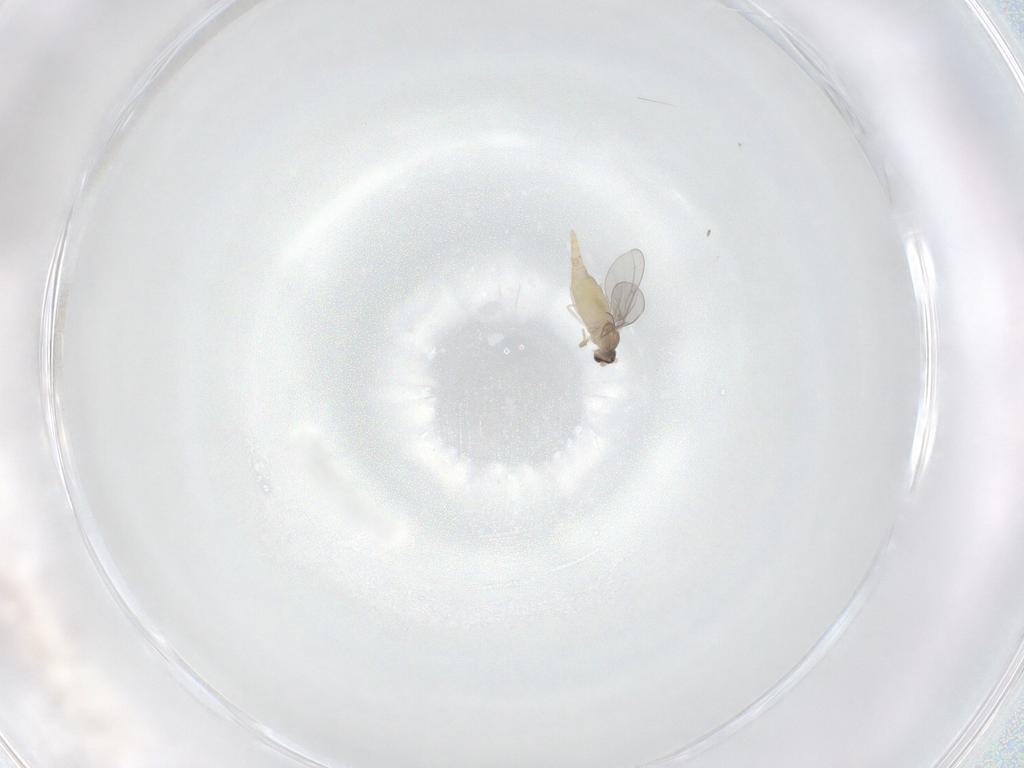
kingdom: Animalia
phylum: Arthropoda
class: Insecta
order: Diptera
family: Cecidomyiidae
